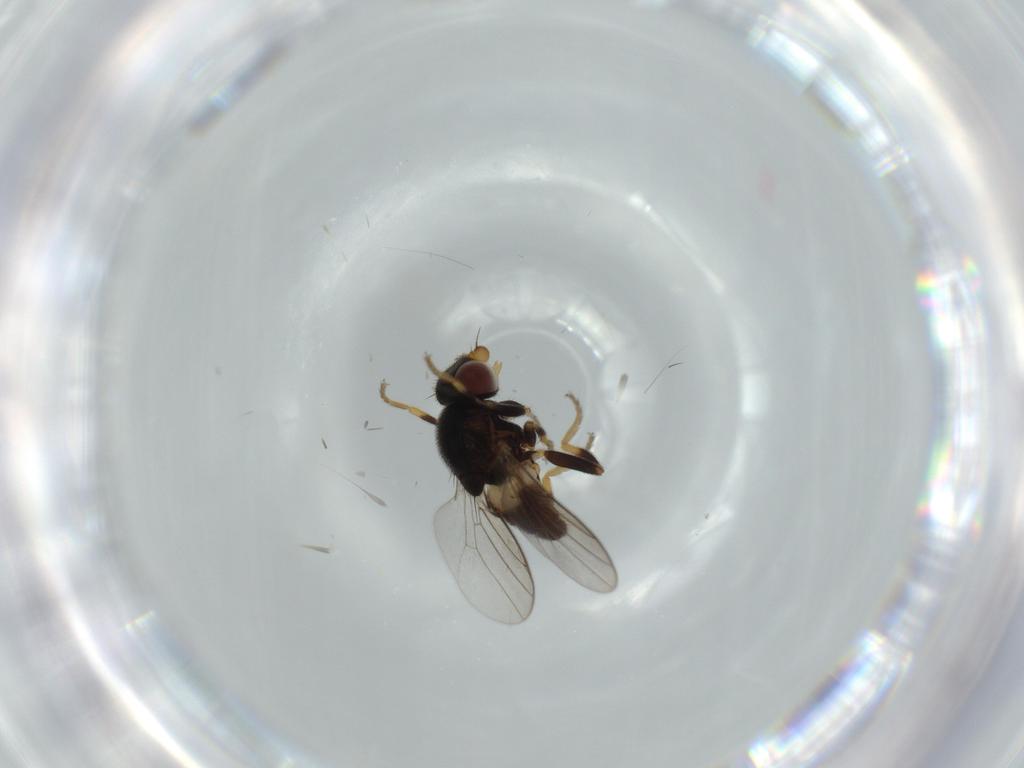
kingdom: Animalia
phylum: Arthropoda
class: Insecta
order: Diptera
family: Chloropidae
